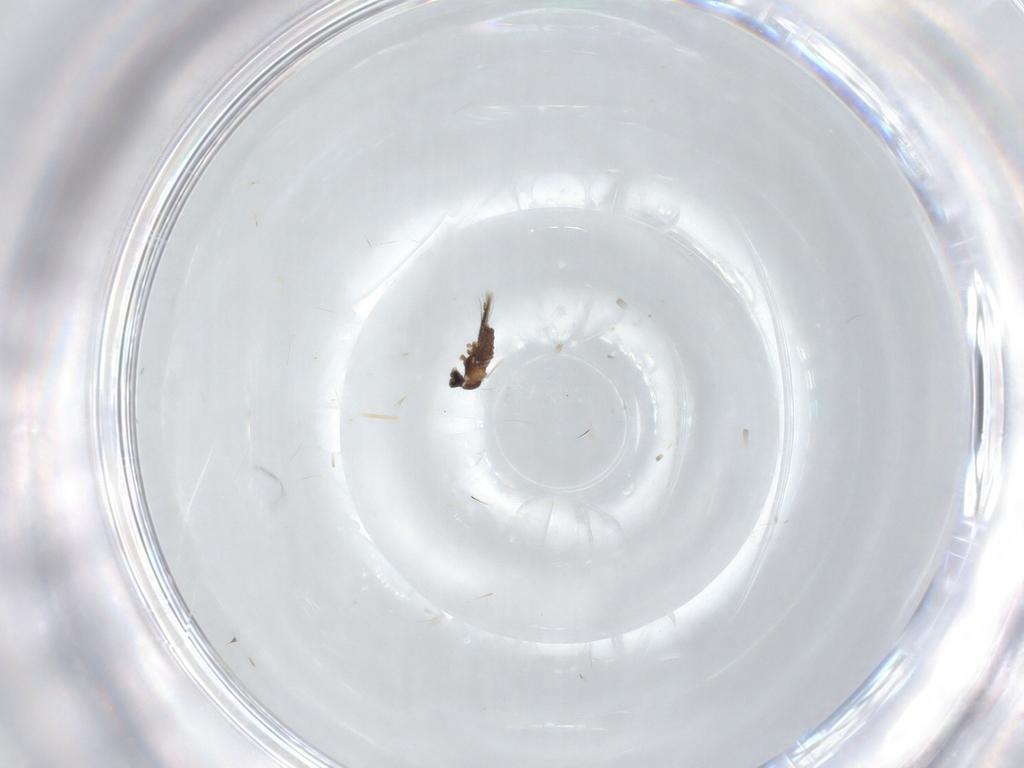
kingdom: Animalia
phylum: Arthropoda
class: Insecta
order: Diptera
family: Cecidomyiidae
